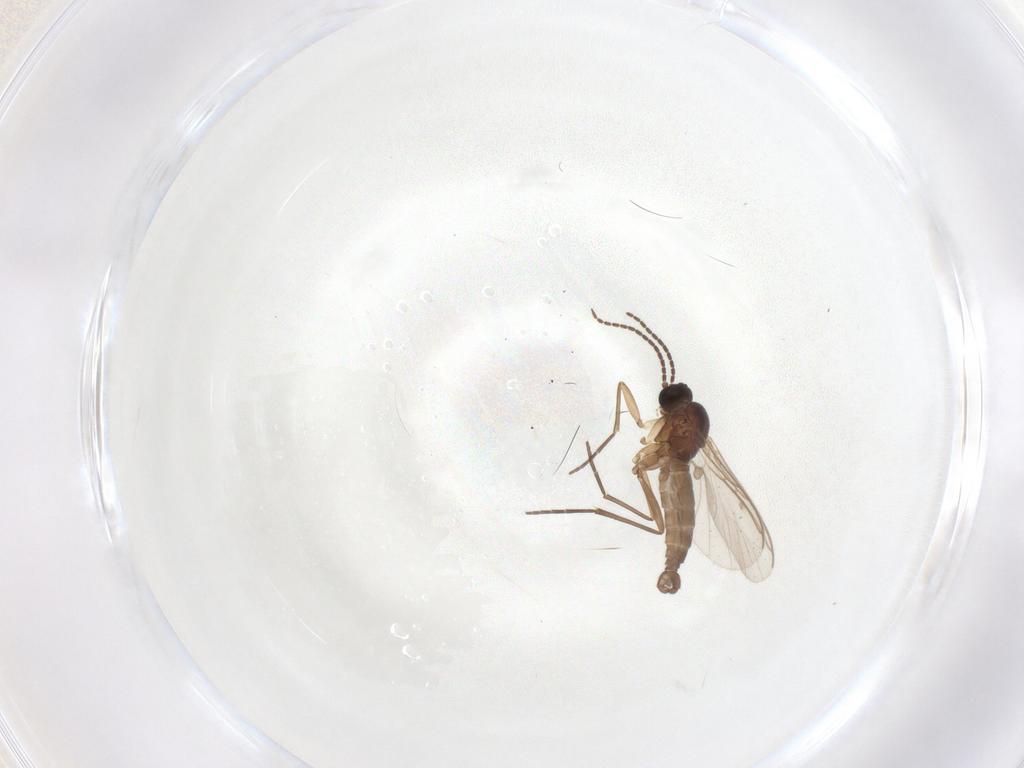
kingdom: Animalia
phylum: Arthropoda
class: Insecta
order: Diptera
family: Sciaridae
